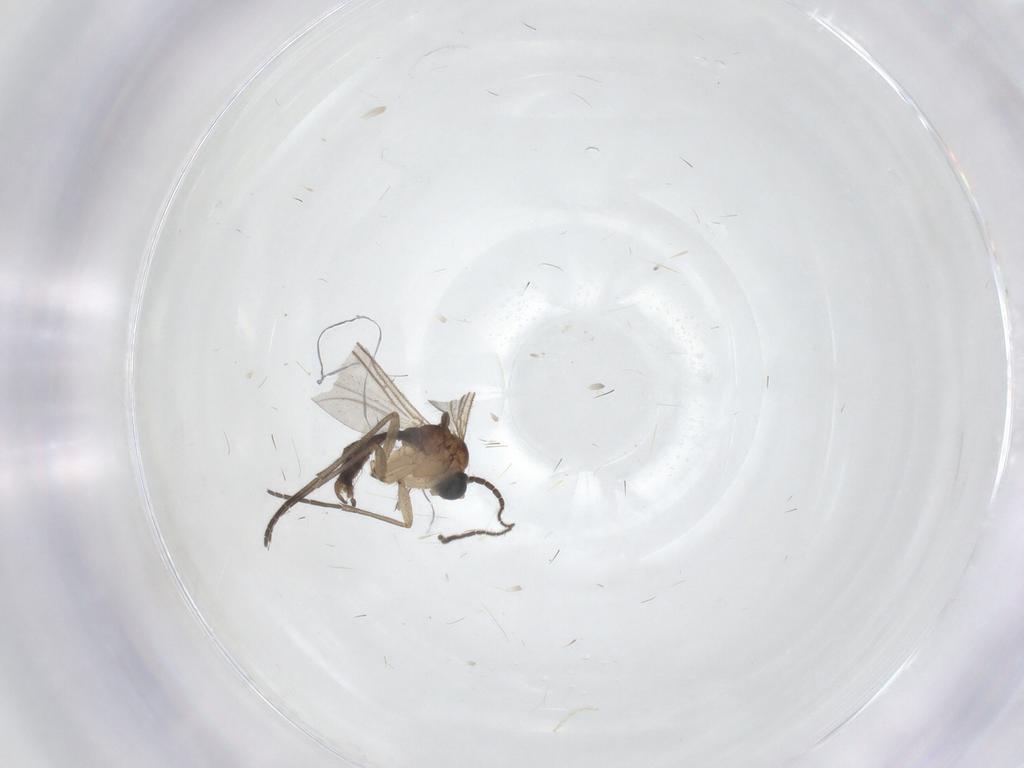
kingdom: Animalia
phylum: Arthropoda
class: Insecta
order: Diptera
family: Sciaridae
